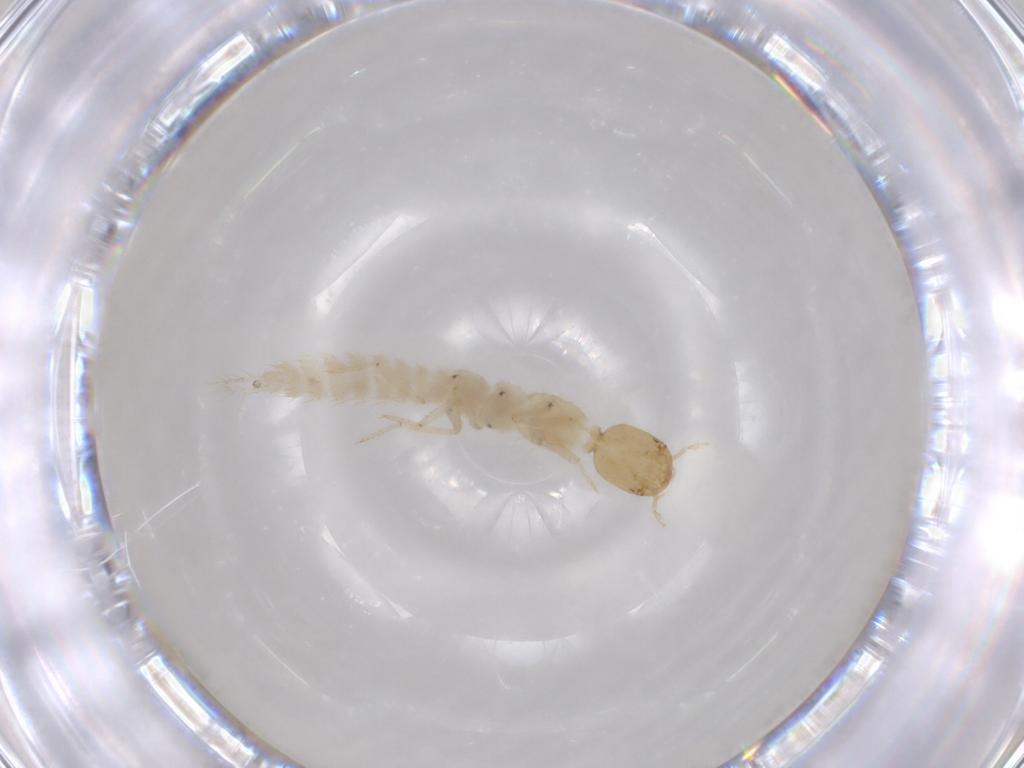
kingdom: Animalia
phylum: Arthropoda
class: Insecta
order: Coleoptera
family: Staphylinidae
